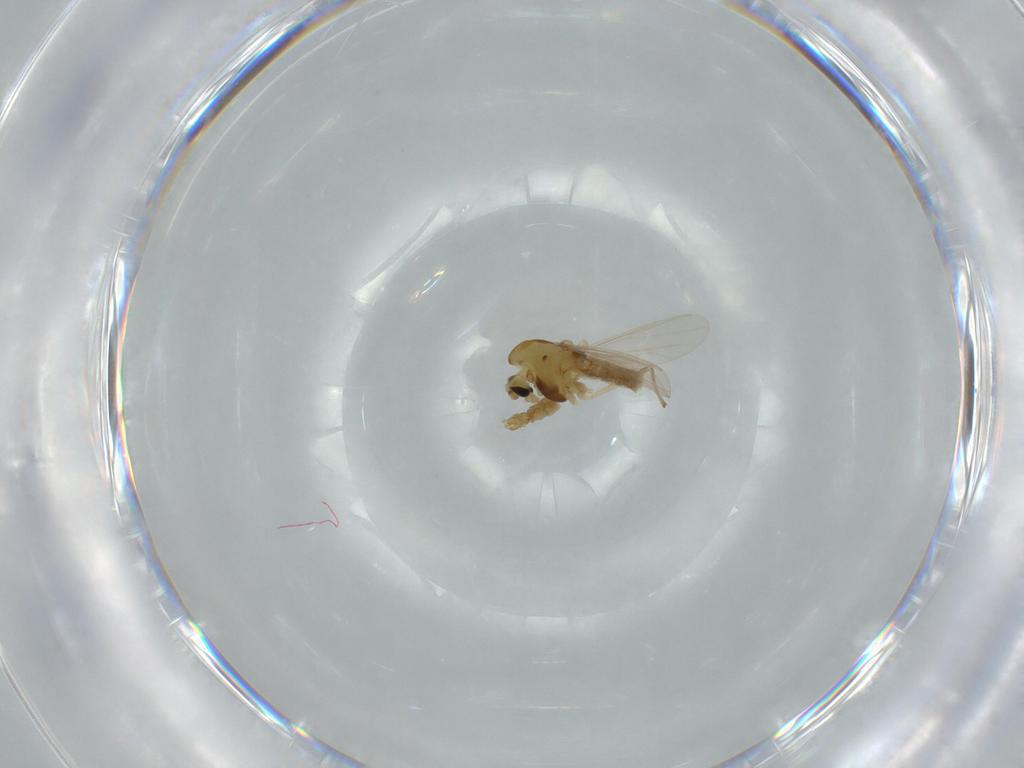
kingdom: Animalia
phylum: Arthropoda
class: Insecta
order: Diptera
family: Chironomidae
